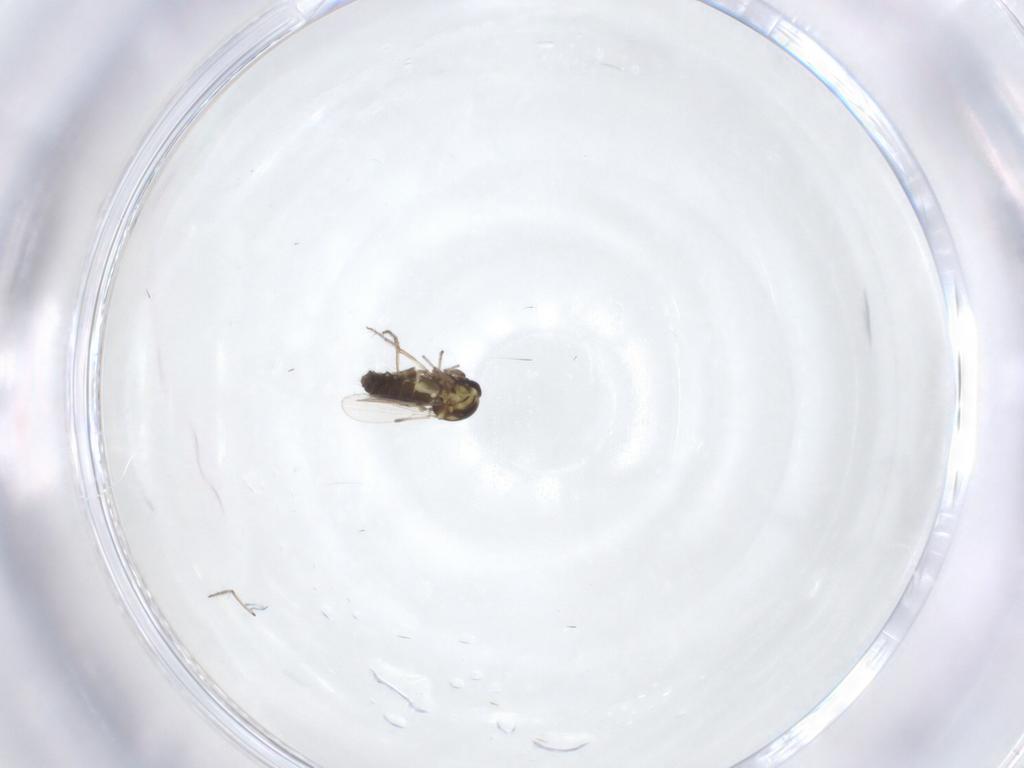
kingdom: Animalia
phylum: Arthropoda
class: Insecta
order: Diptera
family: Ceratopogonidae
